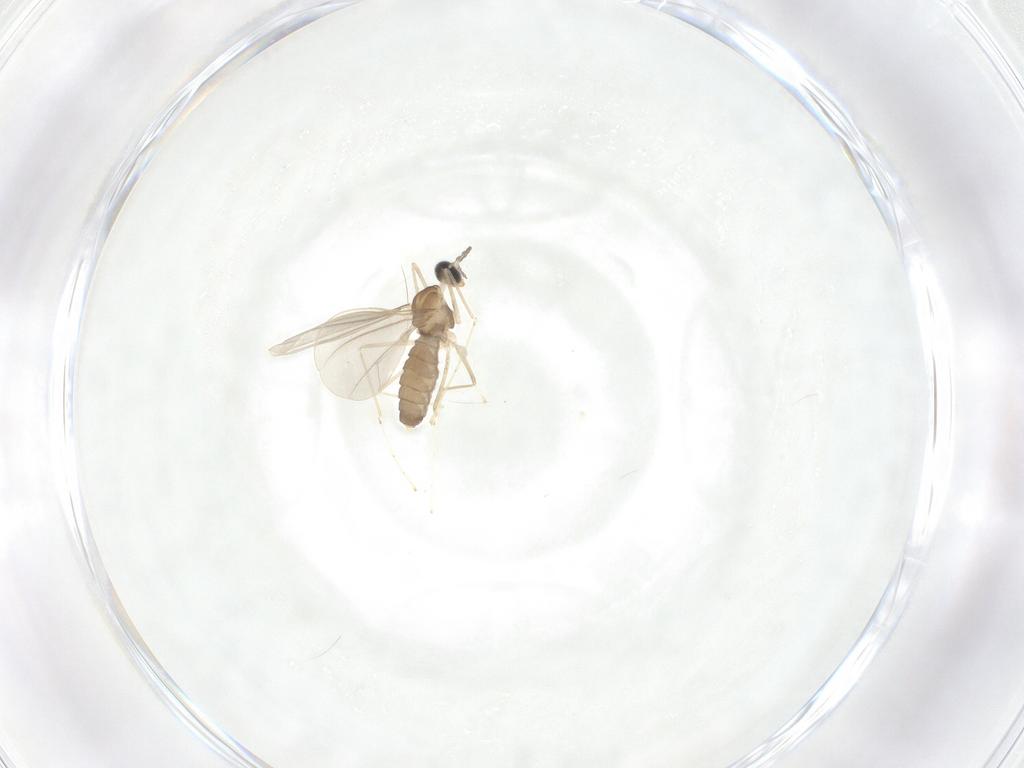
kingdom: Animalia
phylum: Arthropoda
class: Insecta
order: Diptera
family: Cecidomyiidae
